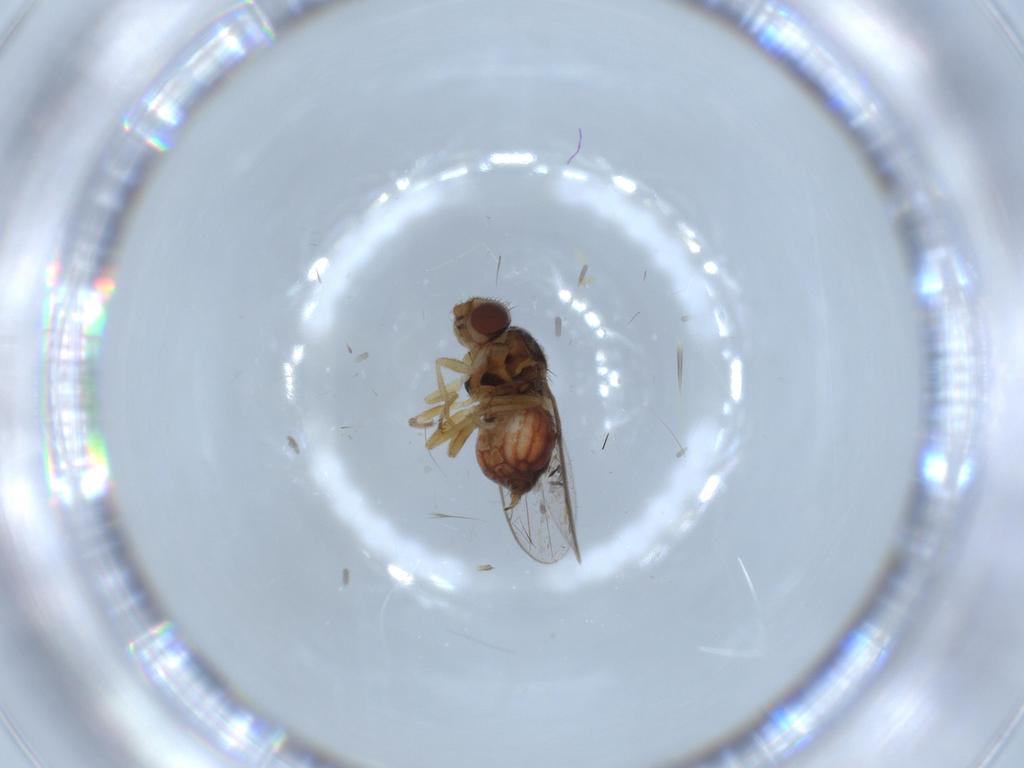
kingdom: Animalia
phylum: Arthropoda
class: Insecta
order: Diptera
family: Chloropidae
